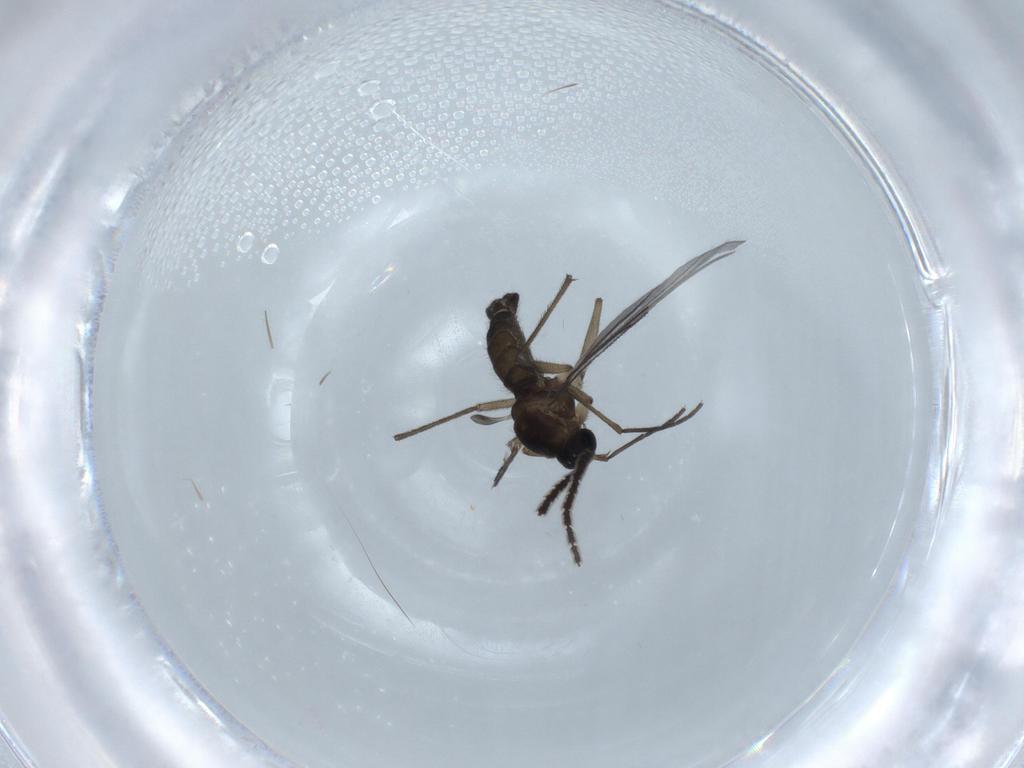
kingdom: Animalia
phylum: Arthropoda
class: Insecta
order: Diptera
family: Sciaridae
